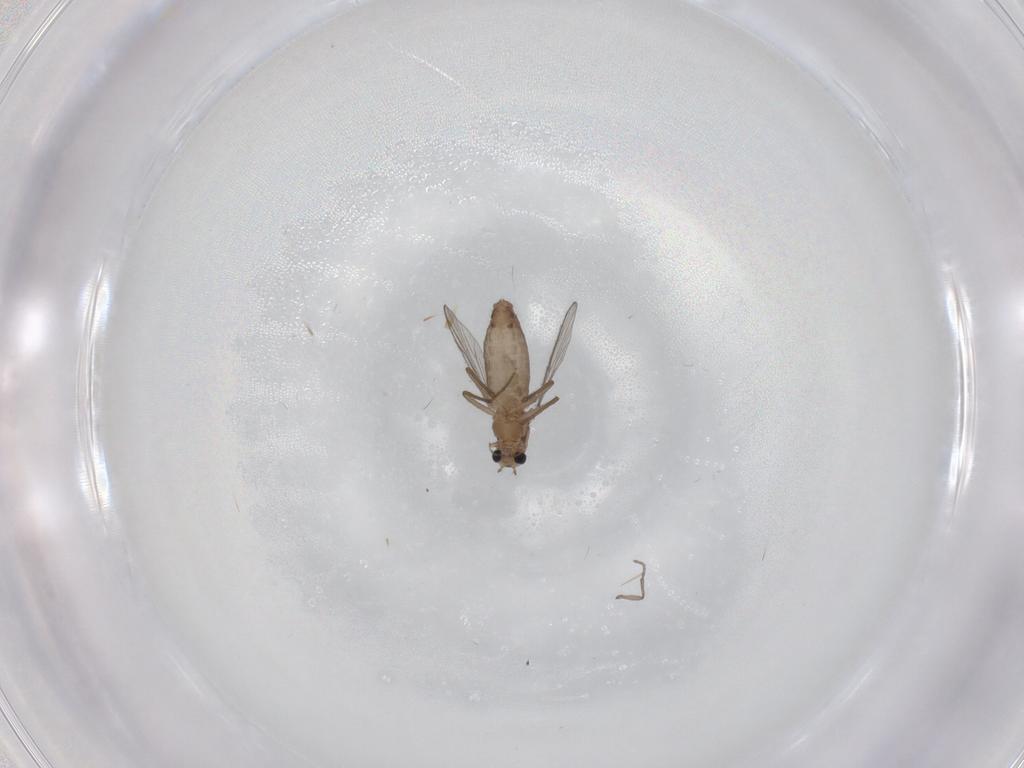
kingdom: Animalia
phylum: Arthropoda
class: Insecta
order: Diptera
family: Chironomidae
